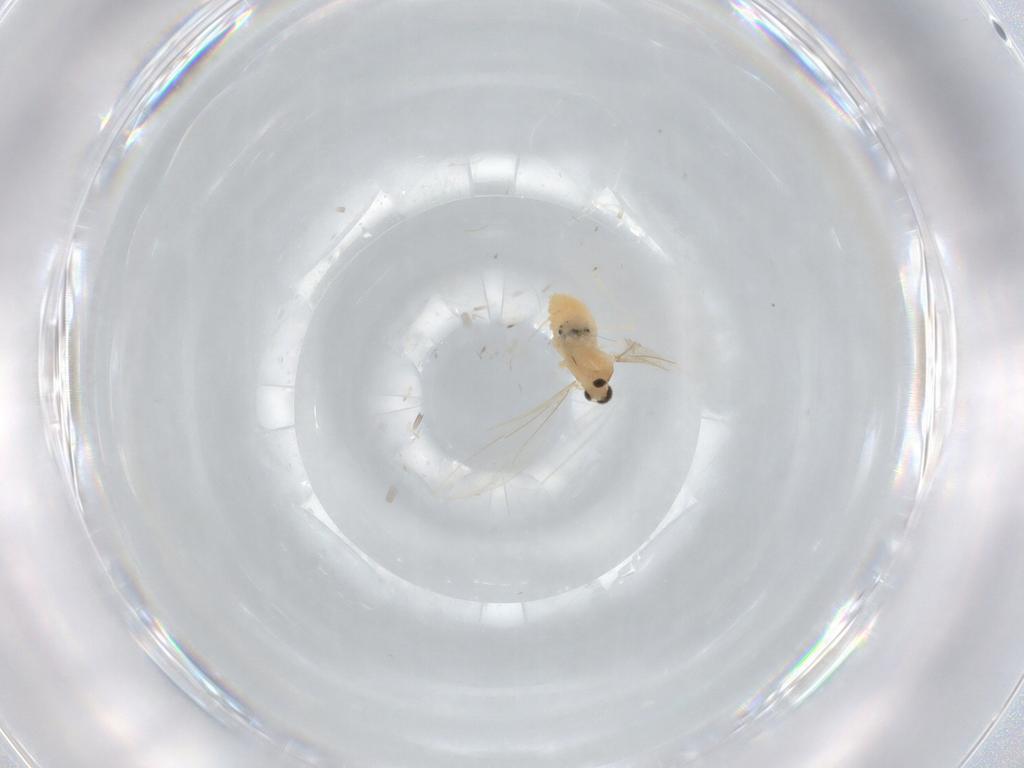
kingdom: Animalia
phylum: Arthropoda
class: Insecta
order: Diptera
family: Cecidomyiidae
